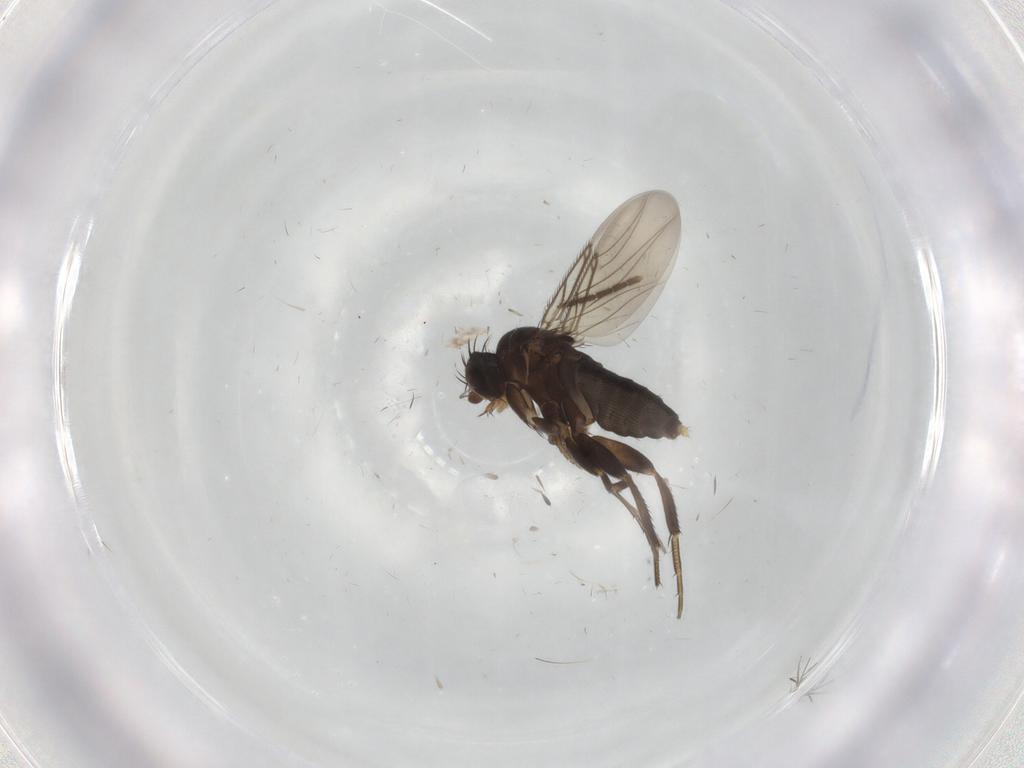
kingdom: Animalia
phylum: Arthropoda
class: Insecta
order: Diptera
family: Phoridae
